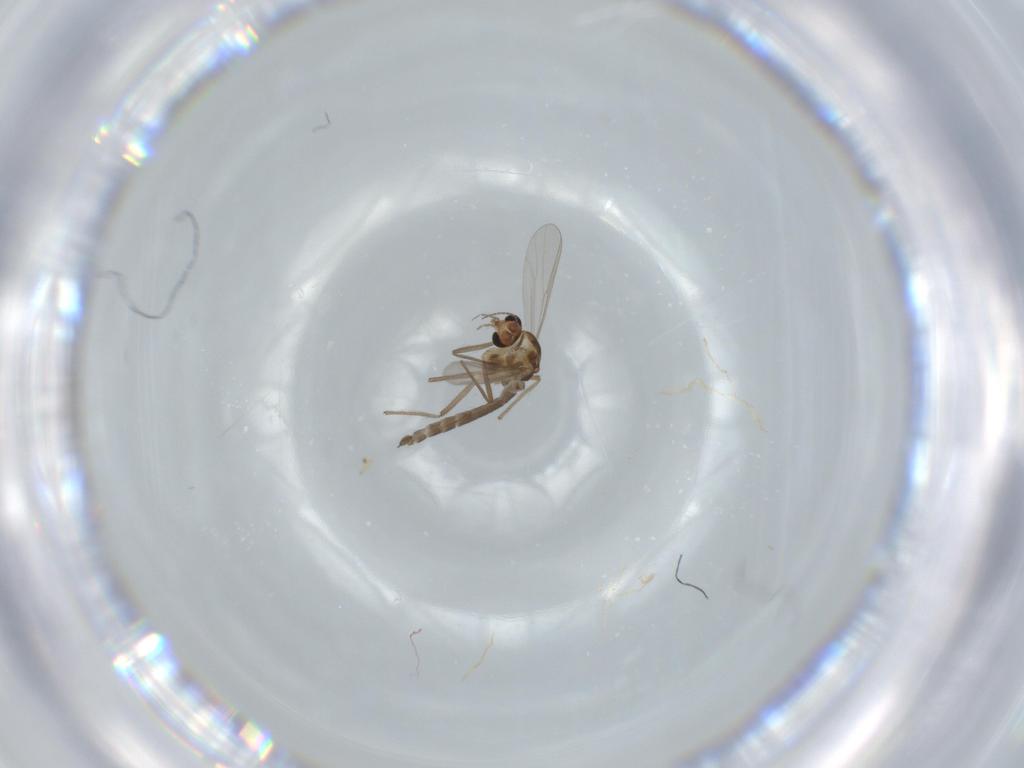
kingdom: Animalia
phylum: Arthropoda
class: Insecta
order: Diptera
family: Chironomidae
